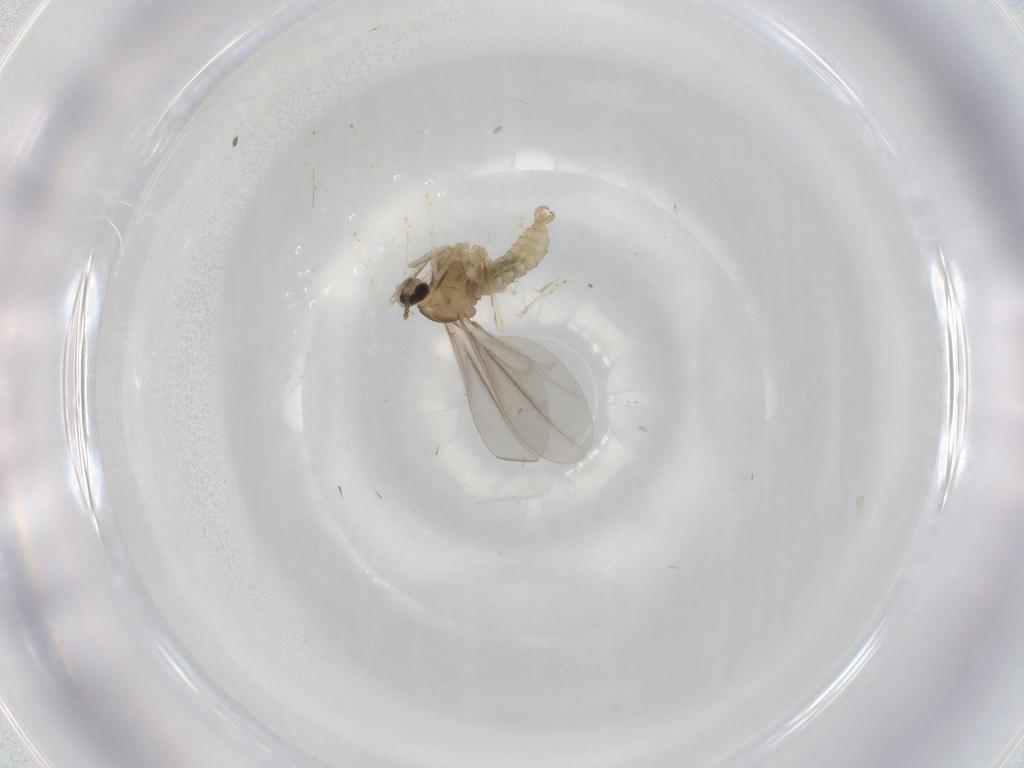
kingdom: Animalia
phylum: Arthropoda
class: Insecta
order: Diptera
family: Cecidomyiidae
